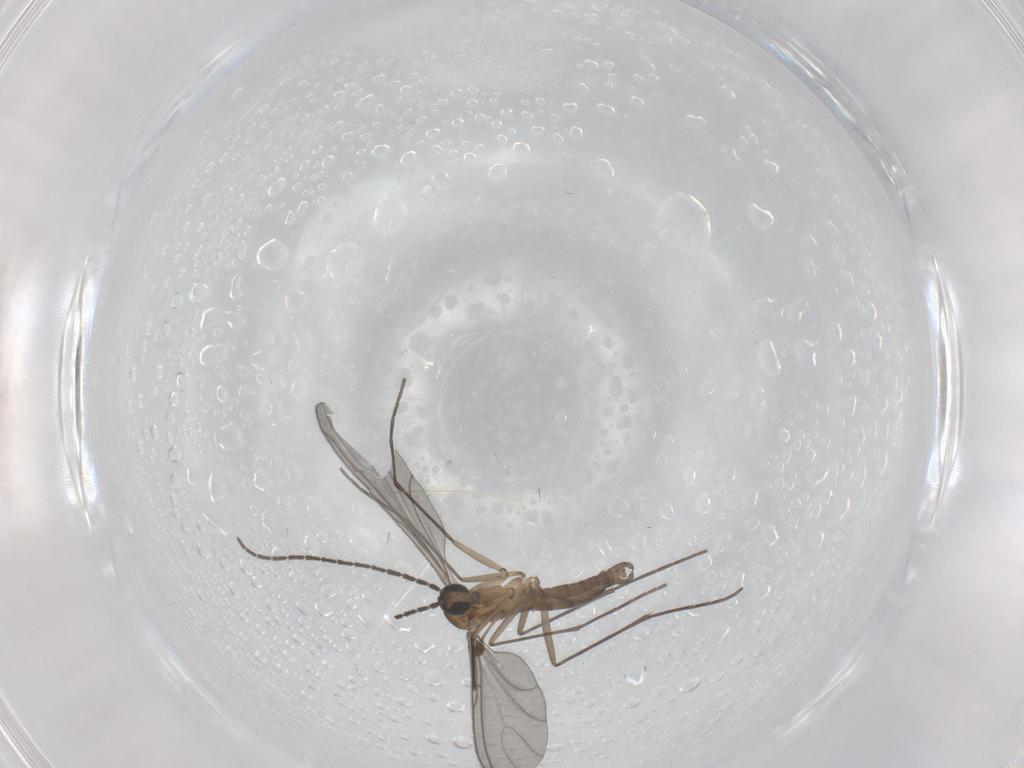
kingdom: Animalia
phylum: Arthropoda
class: Insecta
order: Diptera
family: Sciaridae
